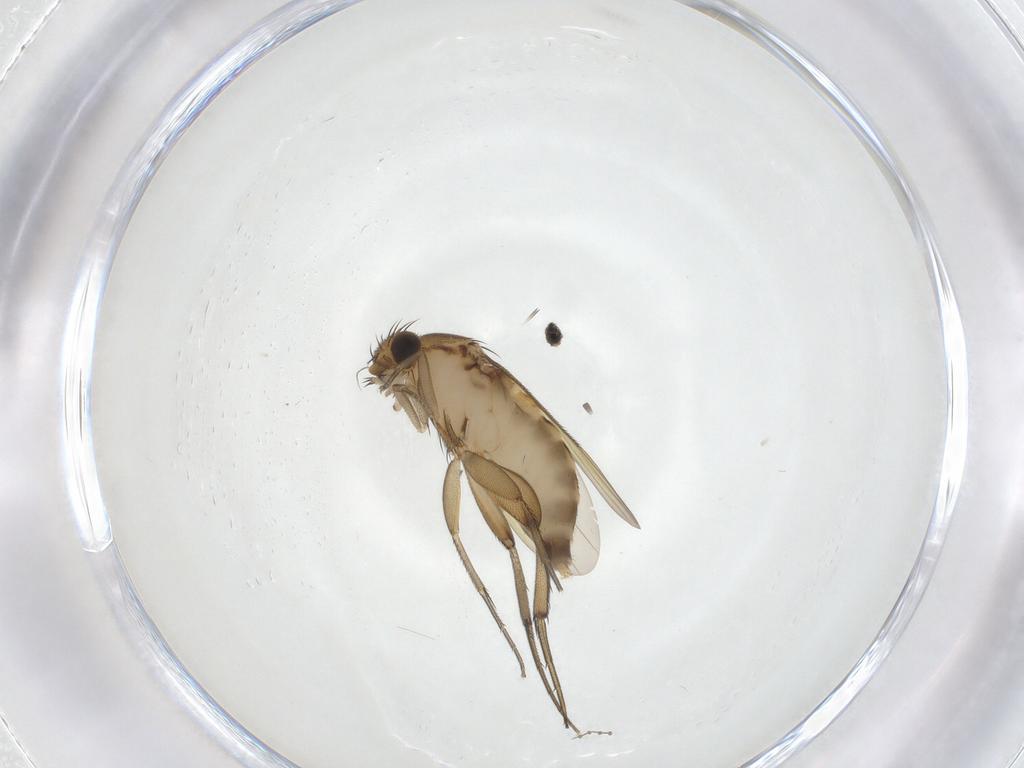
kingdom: Animalia
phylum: Arthropoda
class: Insecta
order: Diptera
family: Phoridae
